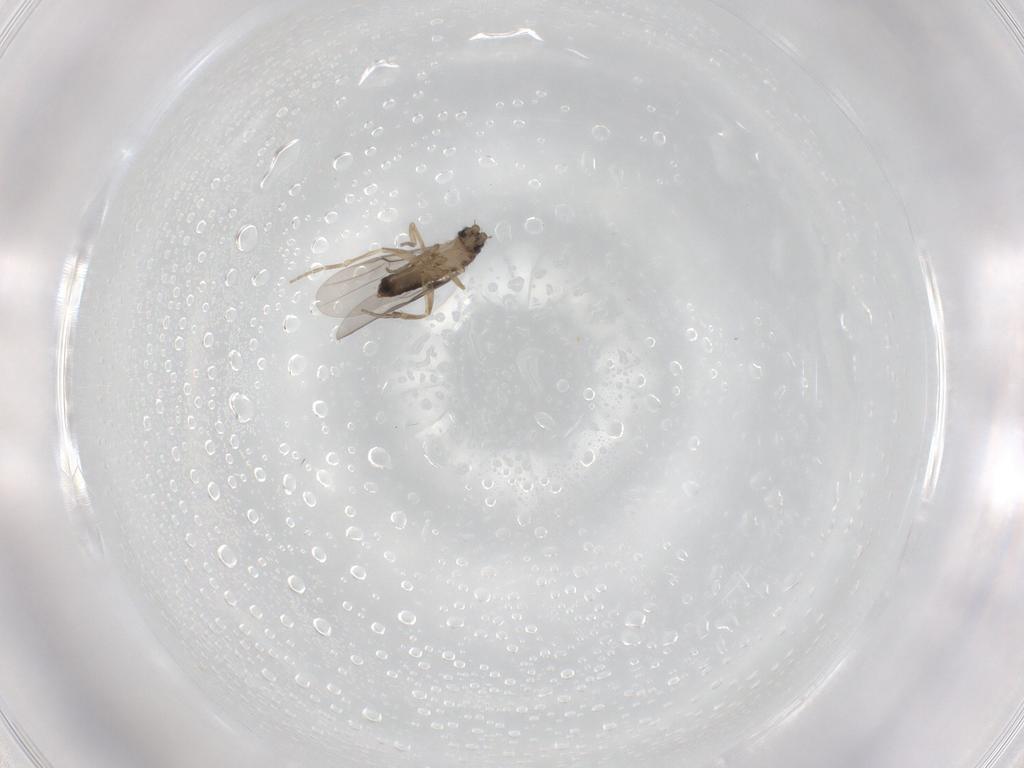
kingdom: Animalia
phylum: Arthropoda
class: Insecta
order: Diptera
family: Phoridae
